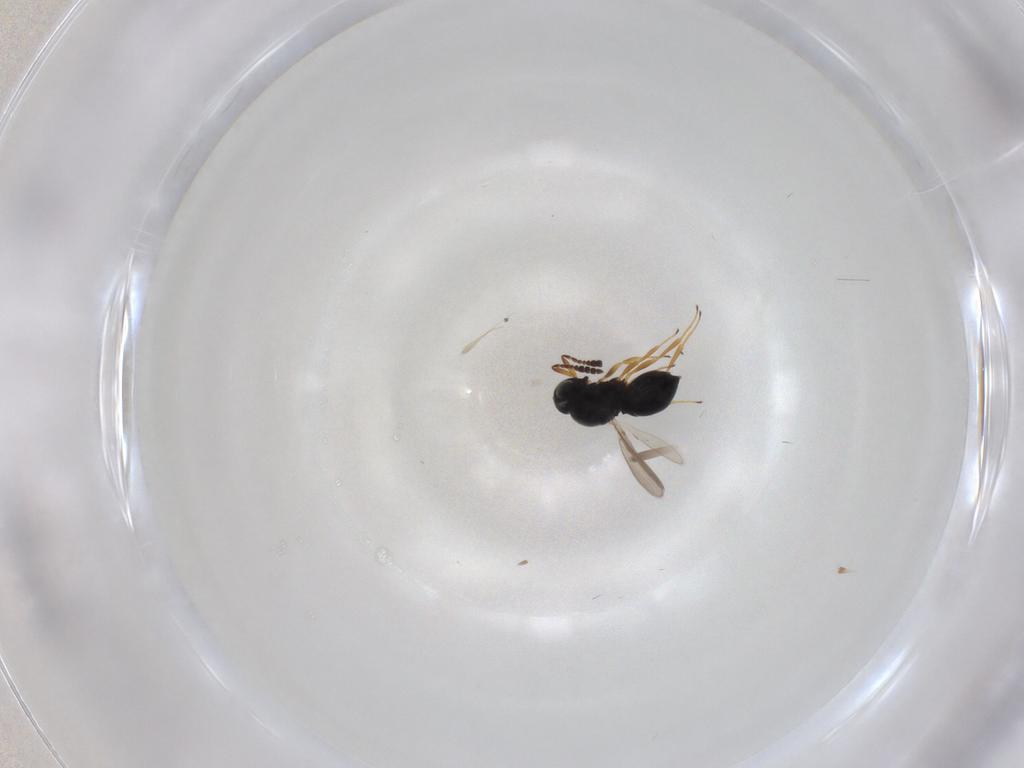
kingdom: Animalia
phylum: Arthropoda
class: Insecta
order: Hymenoptera
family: Scelionidae
